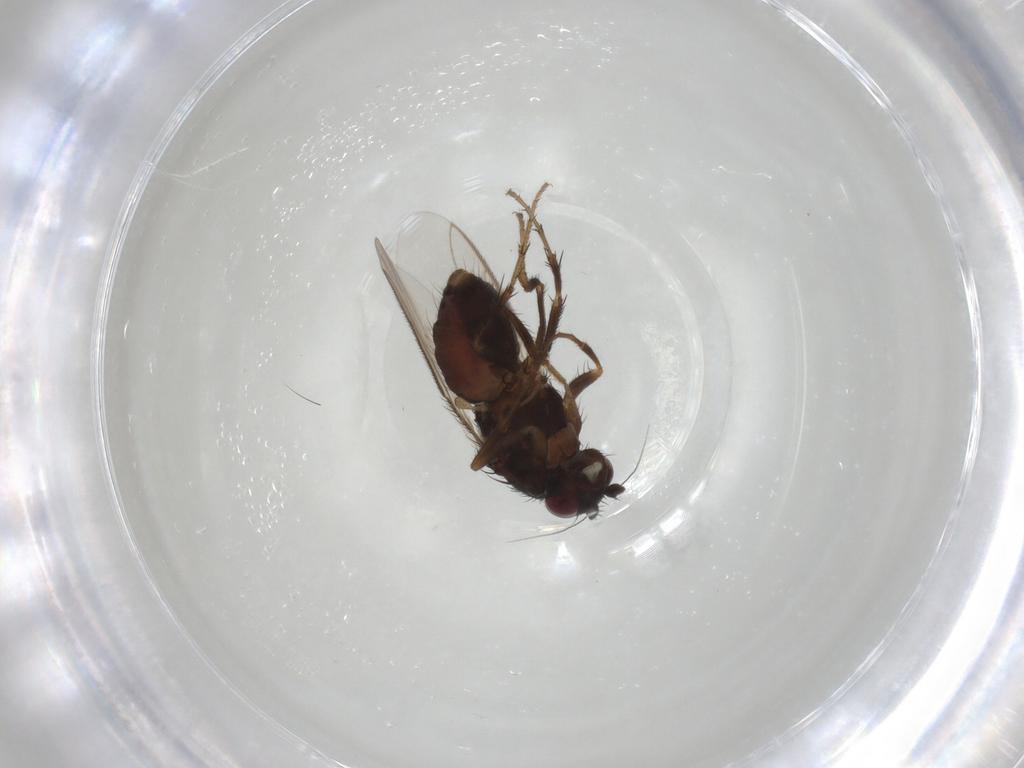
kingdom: Animalia
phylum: Arthropoda
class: Insecta
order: Diptera
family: Sphaeroceridae
